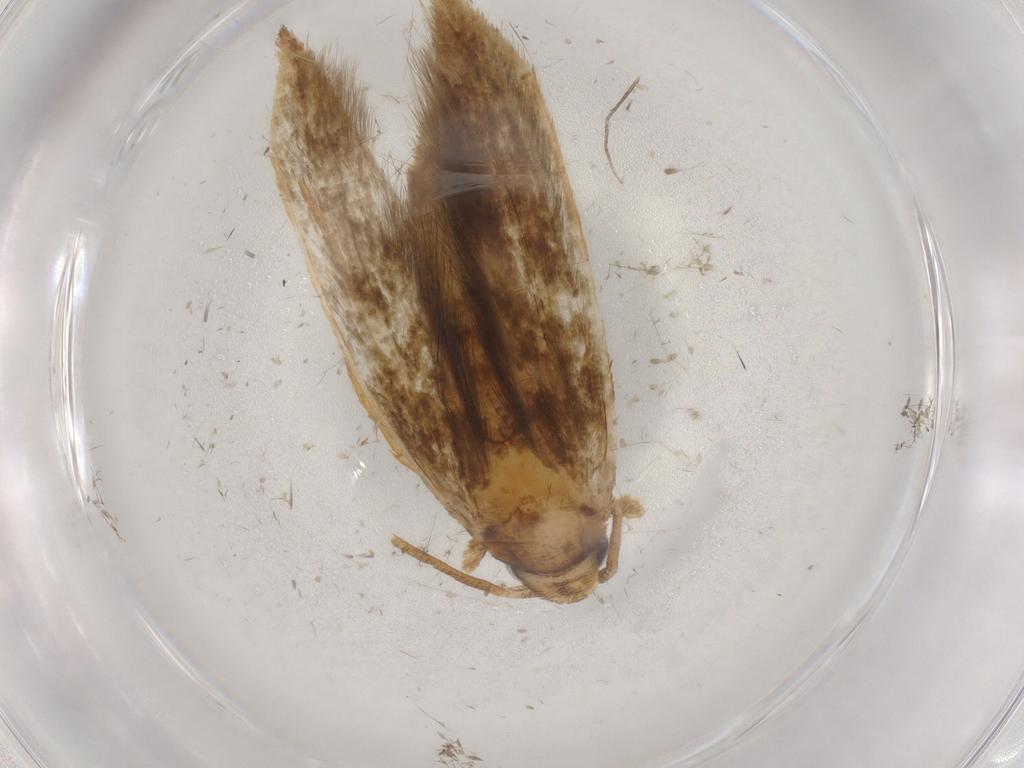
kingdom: Animalia
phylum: Arthropoda
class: Insecta
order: Lepidoptera
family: Tineidae
